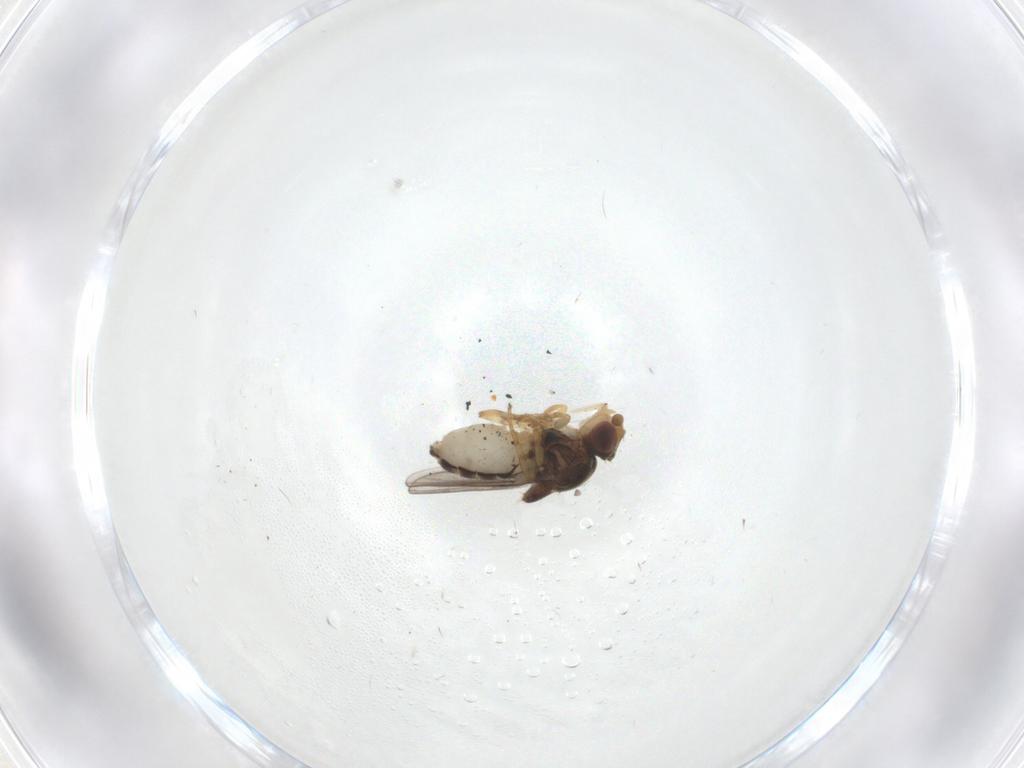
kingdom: Animalia
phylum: Arthropoda
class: Insecta
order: Diptera
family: Chloropidae
